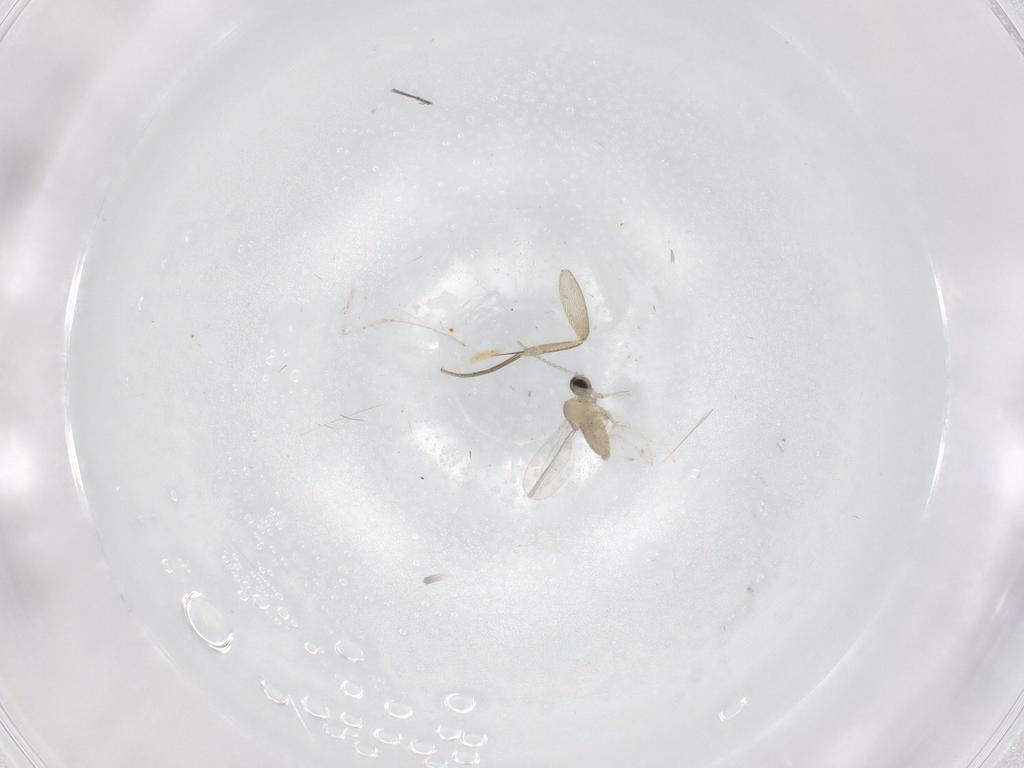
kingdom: Animalia
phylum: Arthropoda
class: Insecta
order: Diptera
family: Phoridae
